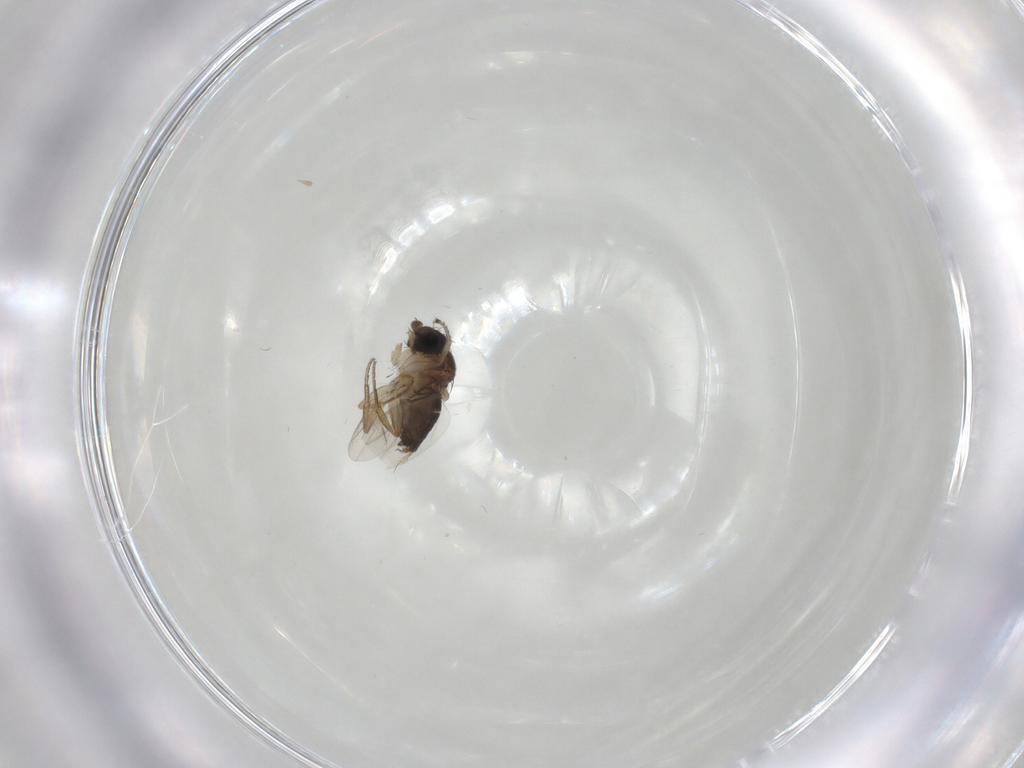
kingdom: Animalia
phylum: Arthropoda
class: Insecta
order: Diptera
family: Phoridae
